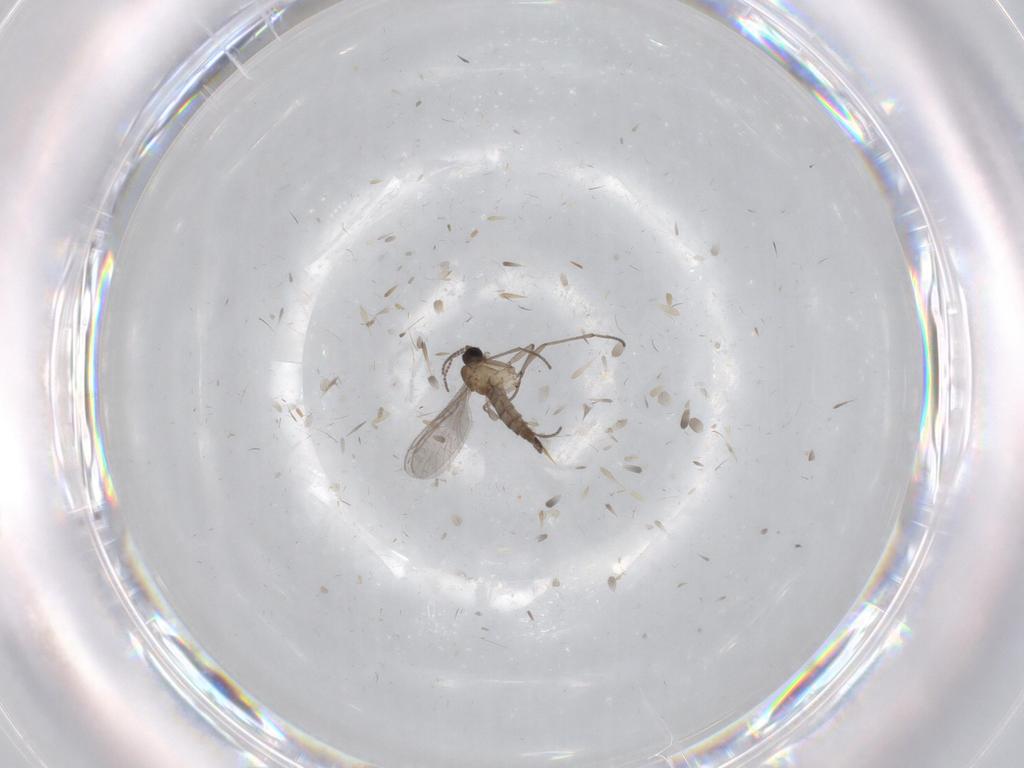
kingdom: Animalia
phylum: Arthropoda
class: Insecta
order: Diptera
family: Sciaridae
